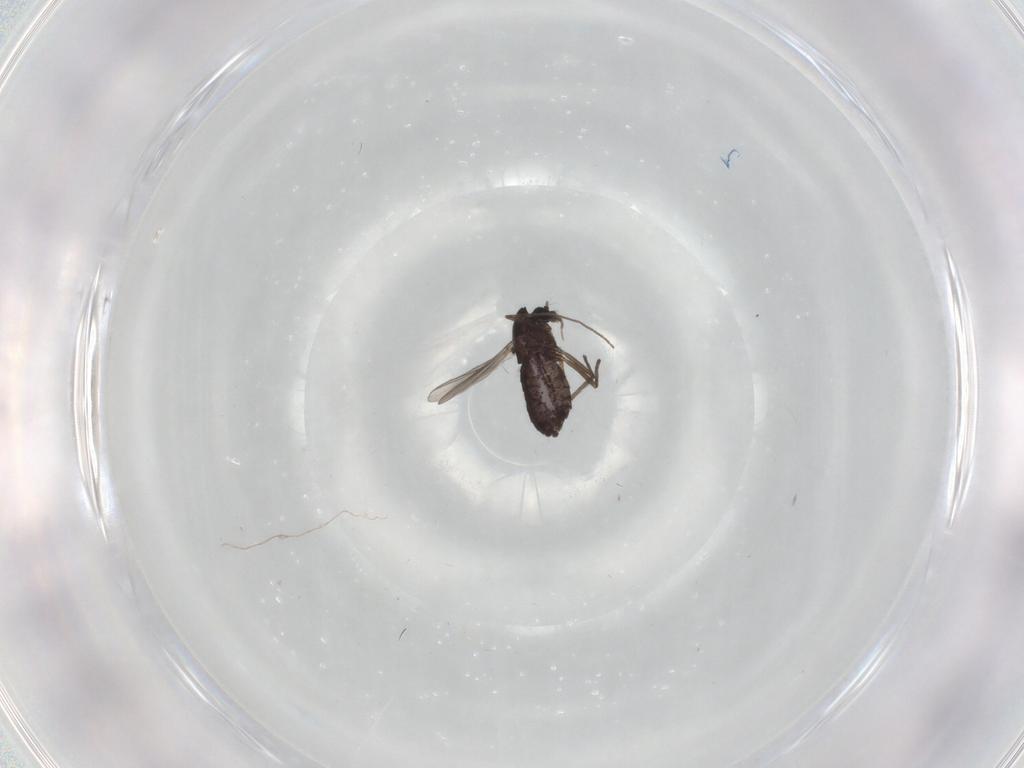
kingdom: Animalia
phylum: Arthropoda
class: Insecta
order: Diptera
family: Chironomidae
